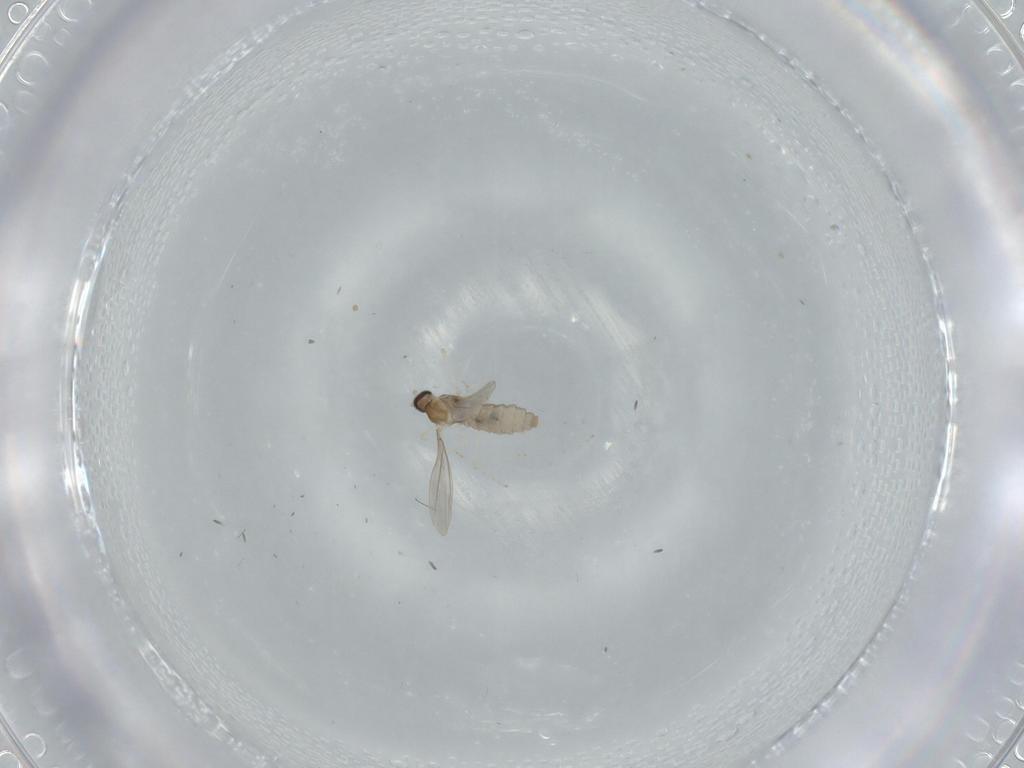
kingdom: Animalia
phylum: Arthropoda
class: Insecta
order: Diptera
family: Cecidomyiidae
